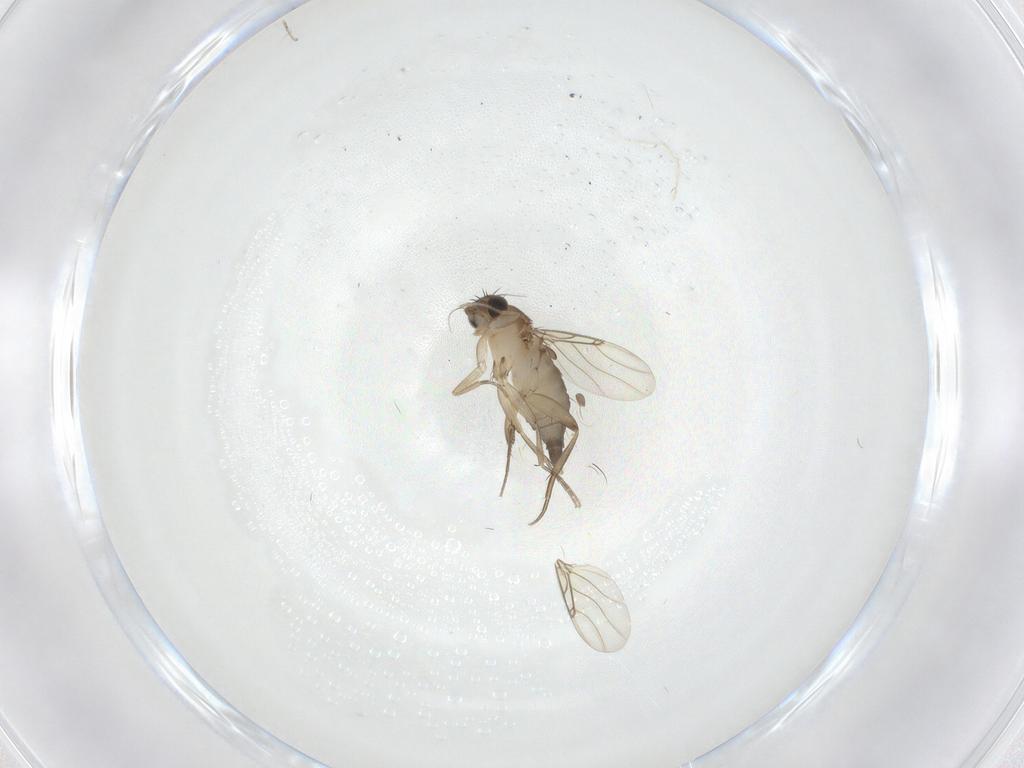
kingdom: Animalia
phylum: Arthropoda
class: Insecta
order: Diptera
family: Phoridae
